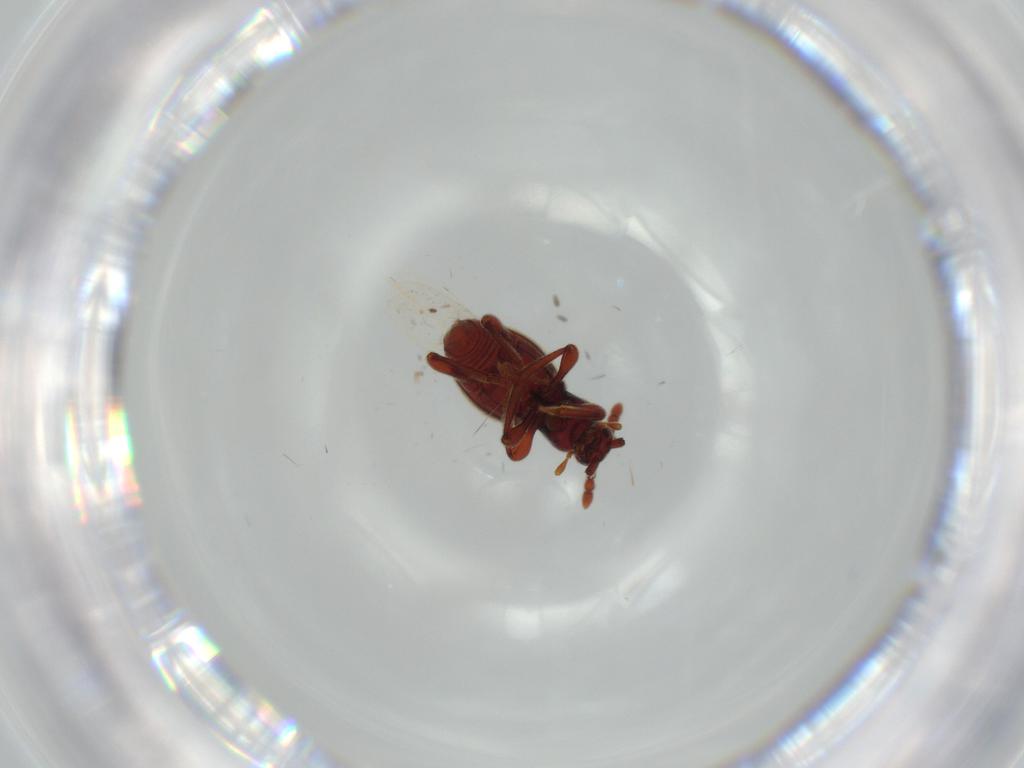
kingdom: Animalia
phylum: Arthropoda
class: Insecta
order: Coleoptera
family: Staphylinidae
